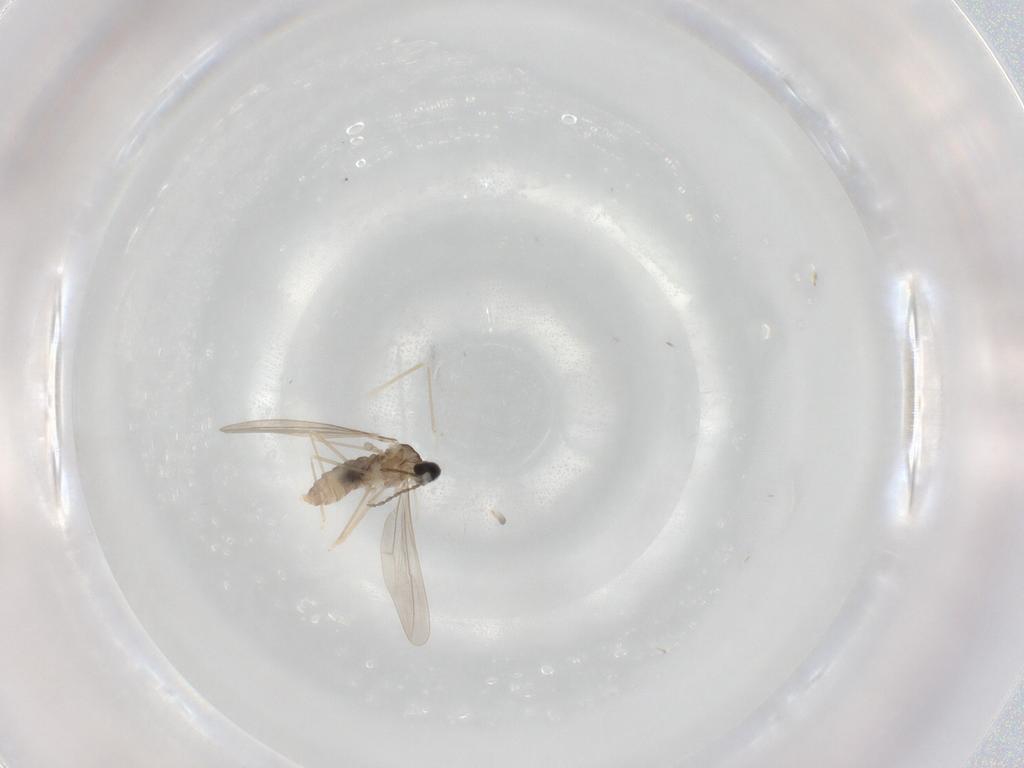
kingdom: Animalia
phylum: Arthropoda
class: Insecta
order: Diptera
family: Cecidomyiidae
